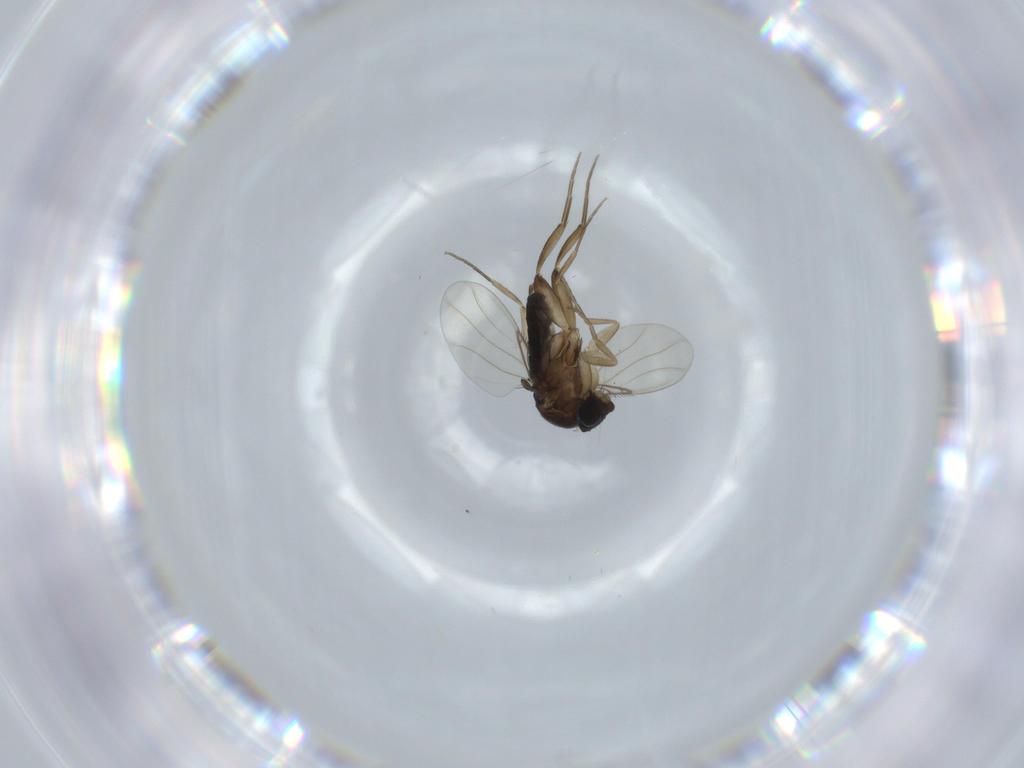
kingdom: Animalia
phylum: Arthropoda
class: Insecta
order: Diptera
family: Phoridae
